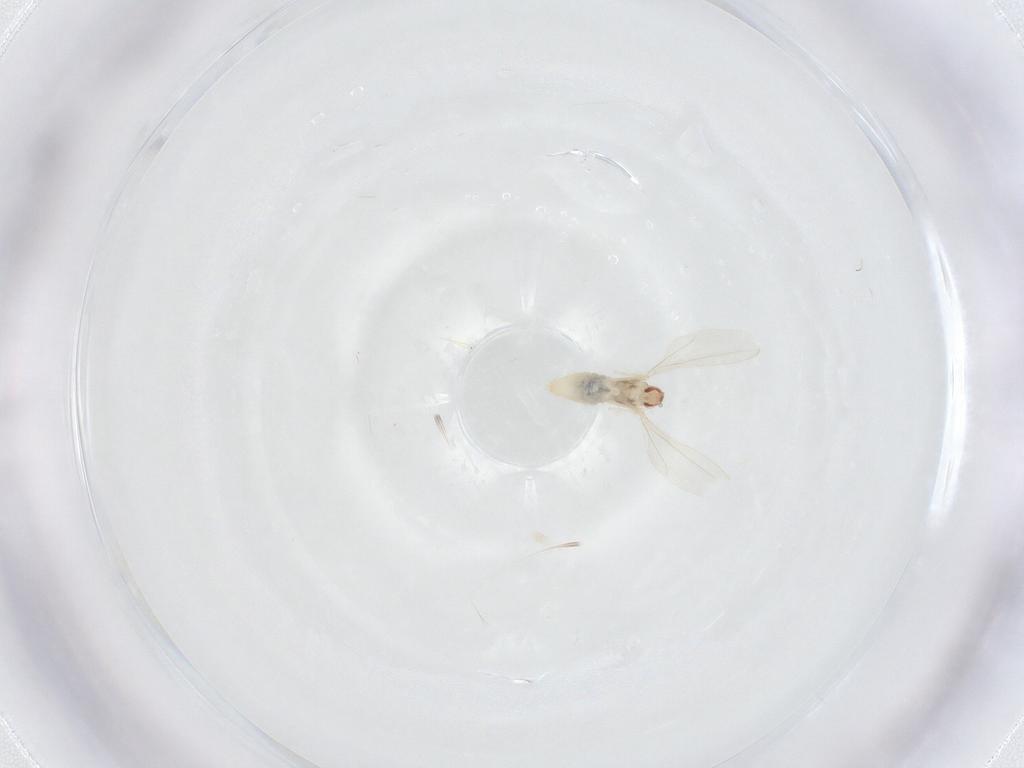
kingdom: Animalia
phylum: Arthropoda
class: Insecta
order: Diptera
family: Cecidomyiidae
